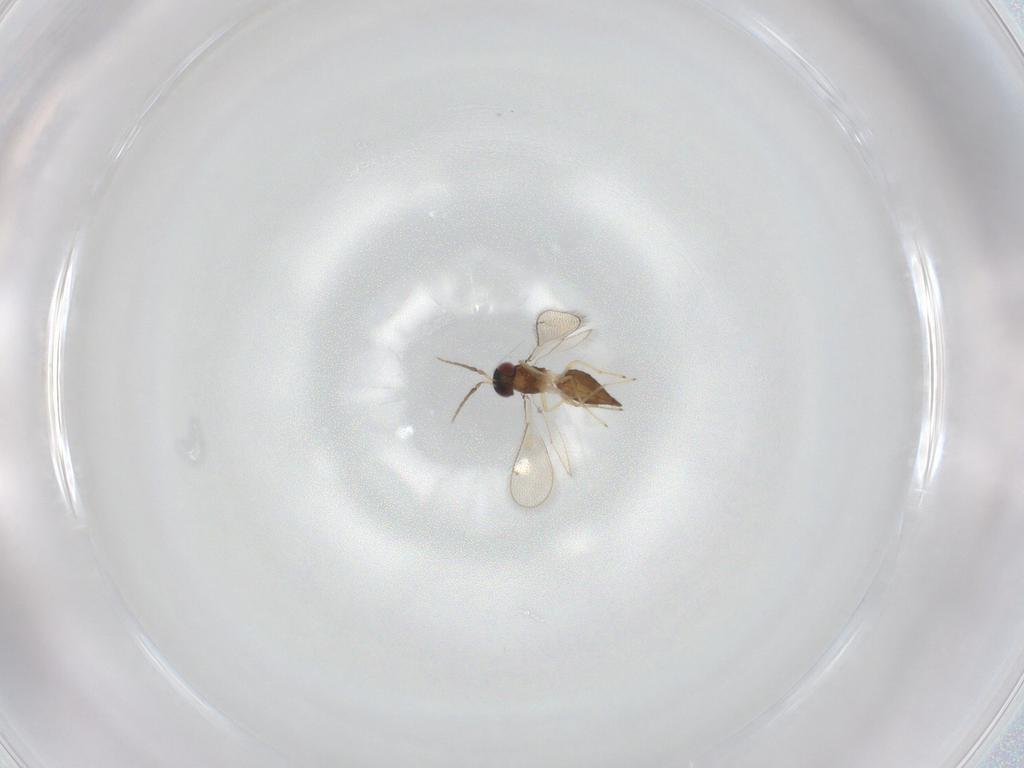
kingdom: Animalia
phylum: Arthropoda
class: Insecta
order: Hymenoptera
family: Eulophidae
